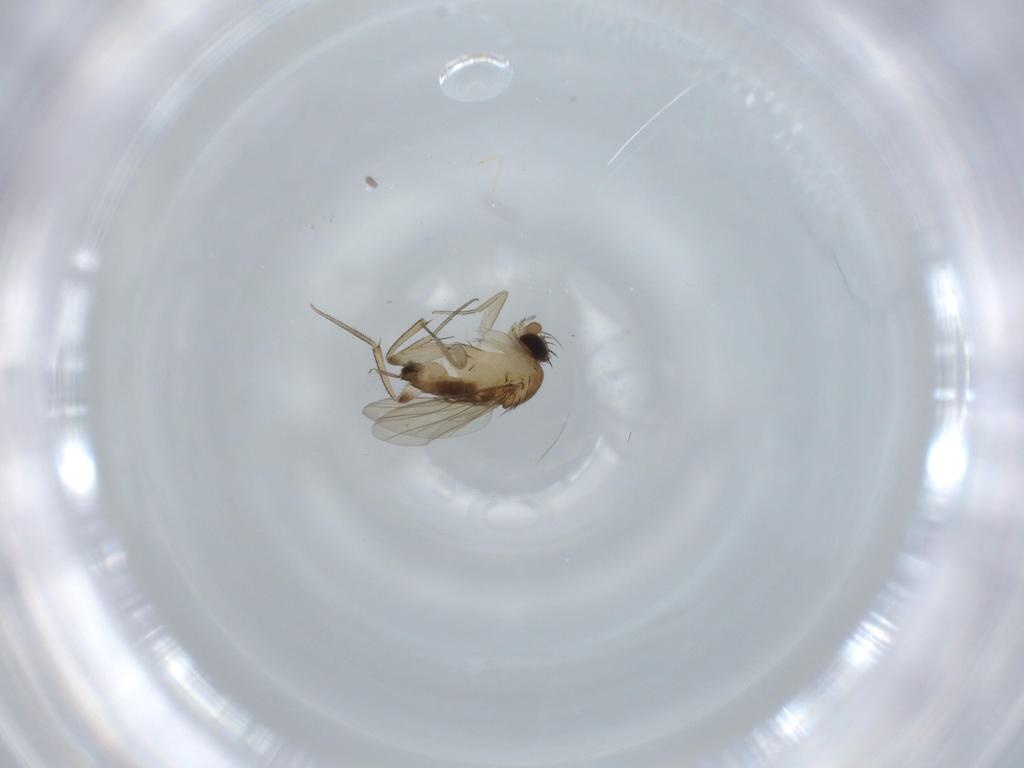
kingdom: Animalia
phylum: Arthropoda
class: Insecta
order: Diptera
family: Phoridae
